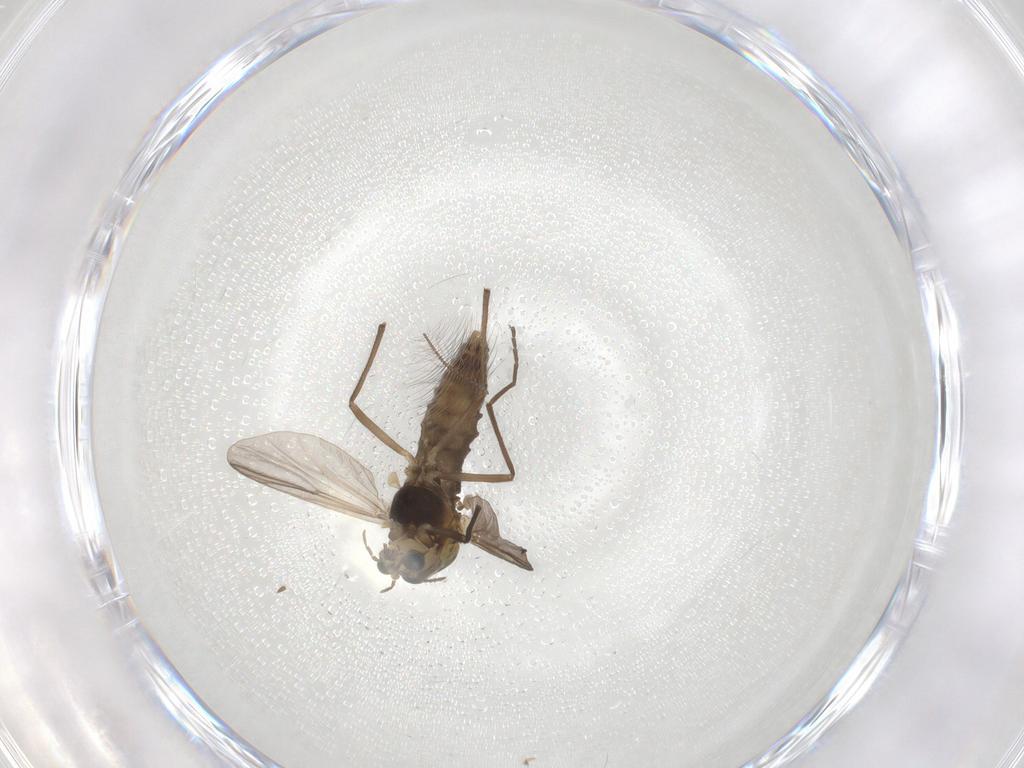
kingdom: Animalia
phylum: Arthropoda
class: Insecta
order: Diptera
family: Chironomidae
